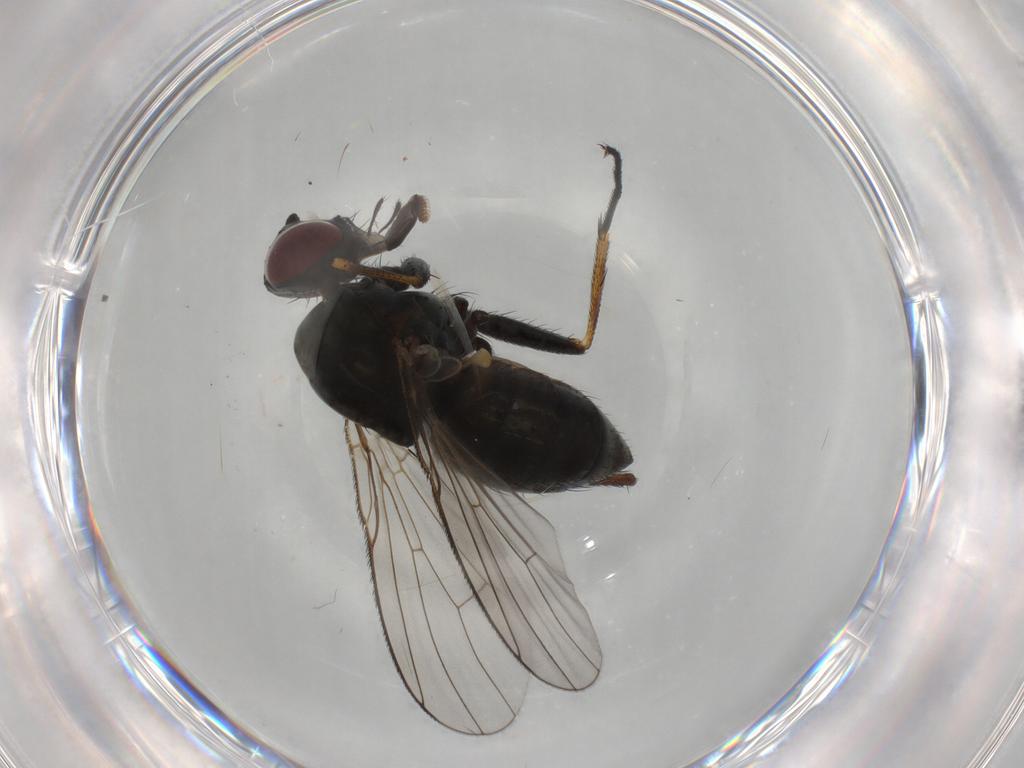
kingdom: Animalia
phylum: Arthropoda
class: Insecta
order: Diptera
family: Muscidae
